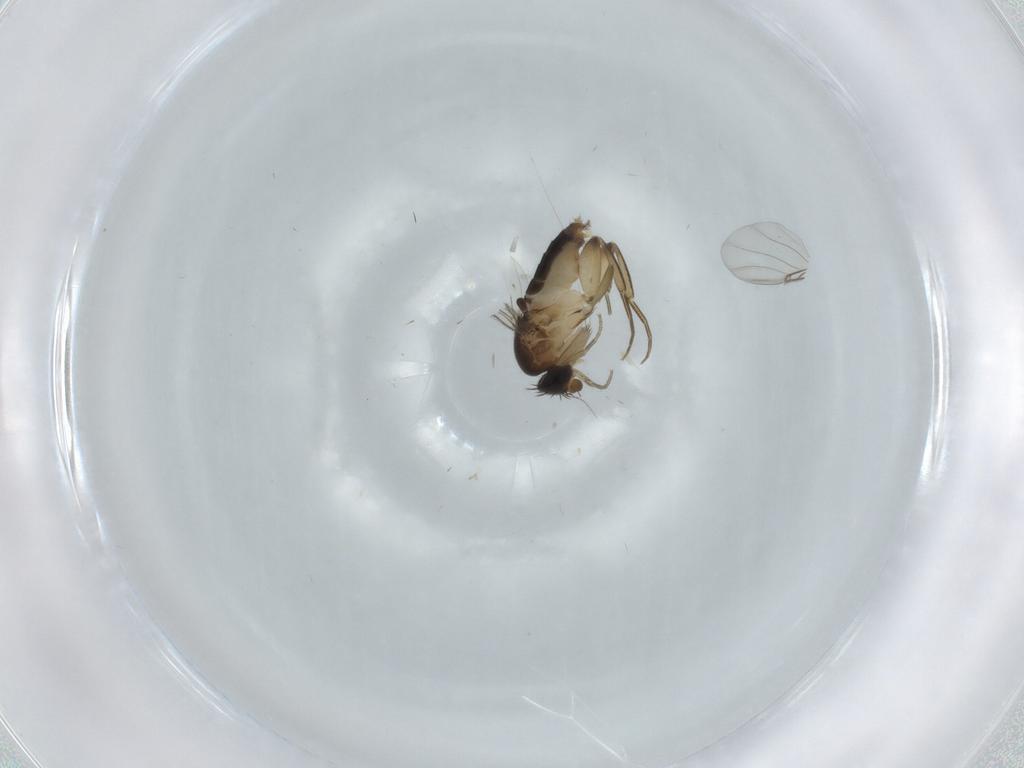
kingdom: Animalia
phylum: Arthropoda
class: Insecta
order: Diptera
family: Phoridae
